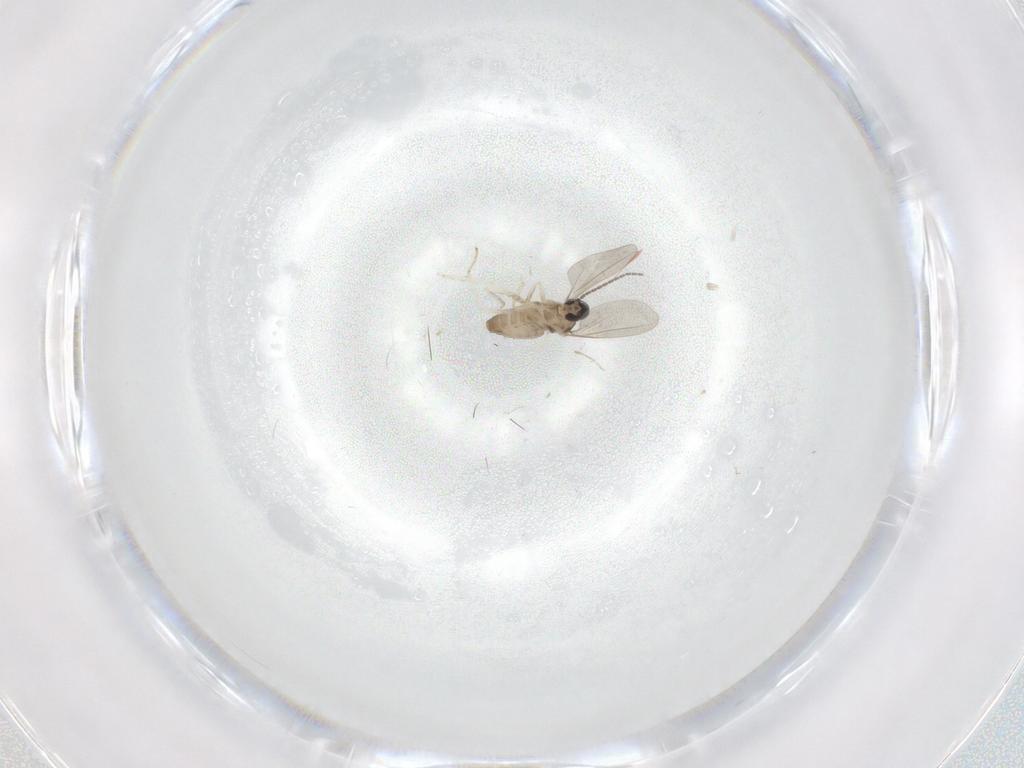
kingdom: Animalia
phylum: Arthropoda
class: Insecta
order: Diptera
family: Cecidomyiidae
